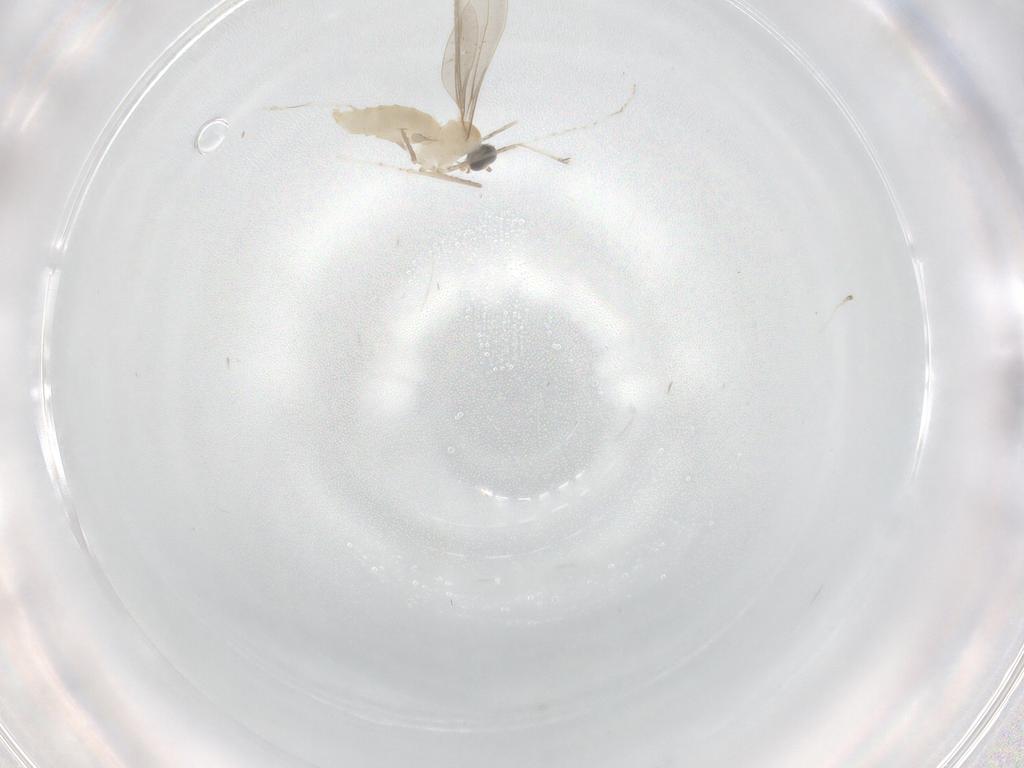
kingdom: Animalia
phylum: Arthropoda
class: Insecta
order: Diptera
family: Cecidomyiidae
